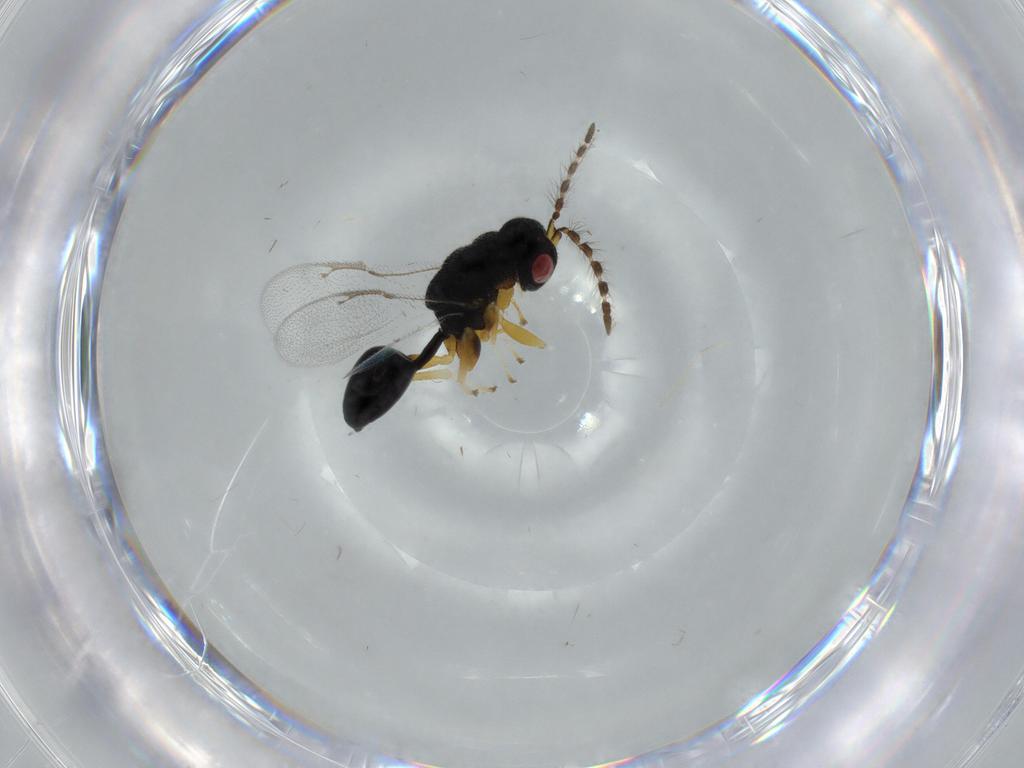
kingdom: Animalia
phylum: Arthropoda
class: Insecta
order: Hymenoptera
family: Eurytomidae
